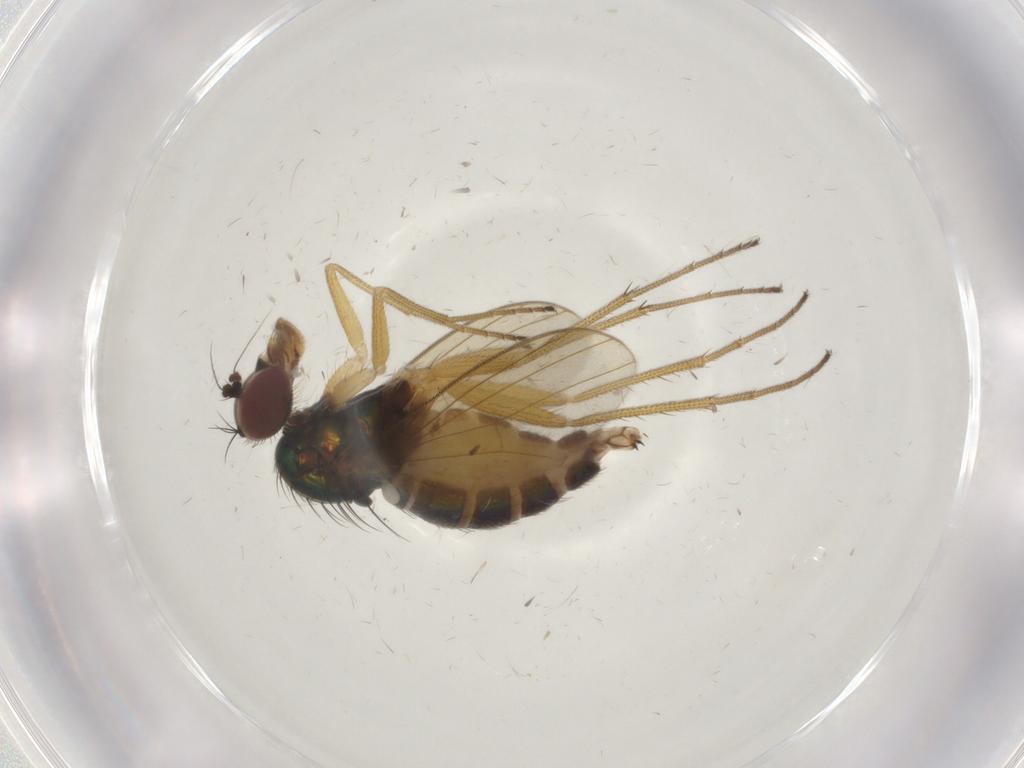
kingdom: Animalia
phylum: Arthropoda
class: Insecta
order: Diptera
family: Dolichopodidae
